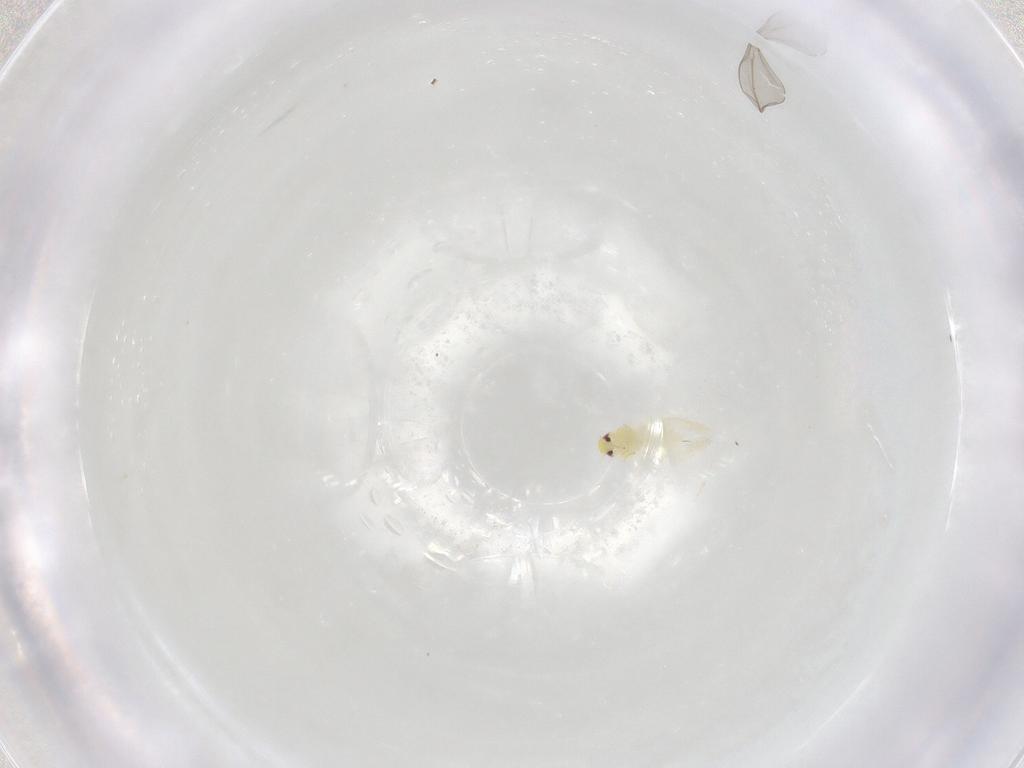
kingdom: Animalia
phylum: Arthropoda
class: Insecta
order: Hemiptera
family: Aleyrodidae
